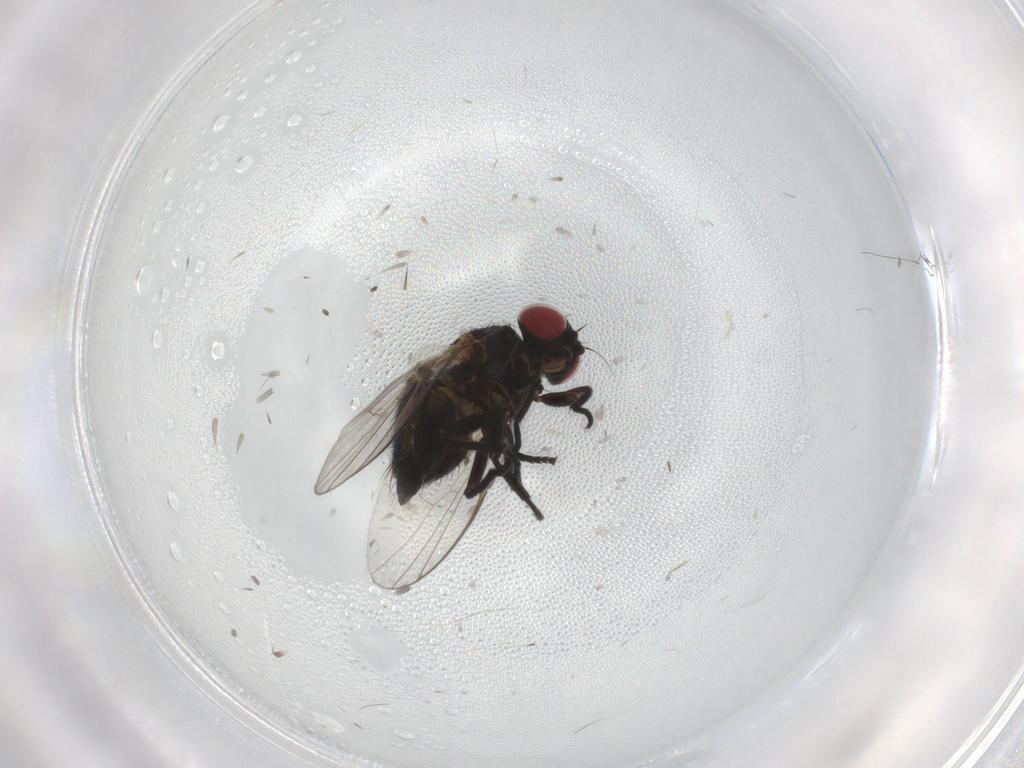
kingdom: Animalia
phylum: Arthropoda
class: Insecta
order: Diptera
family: Agromyzidae
